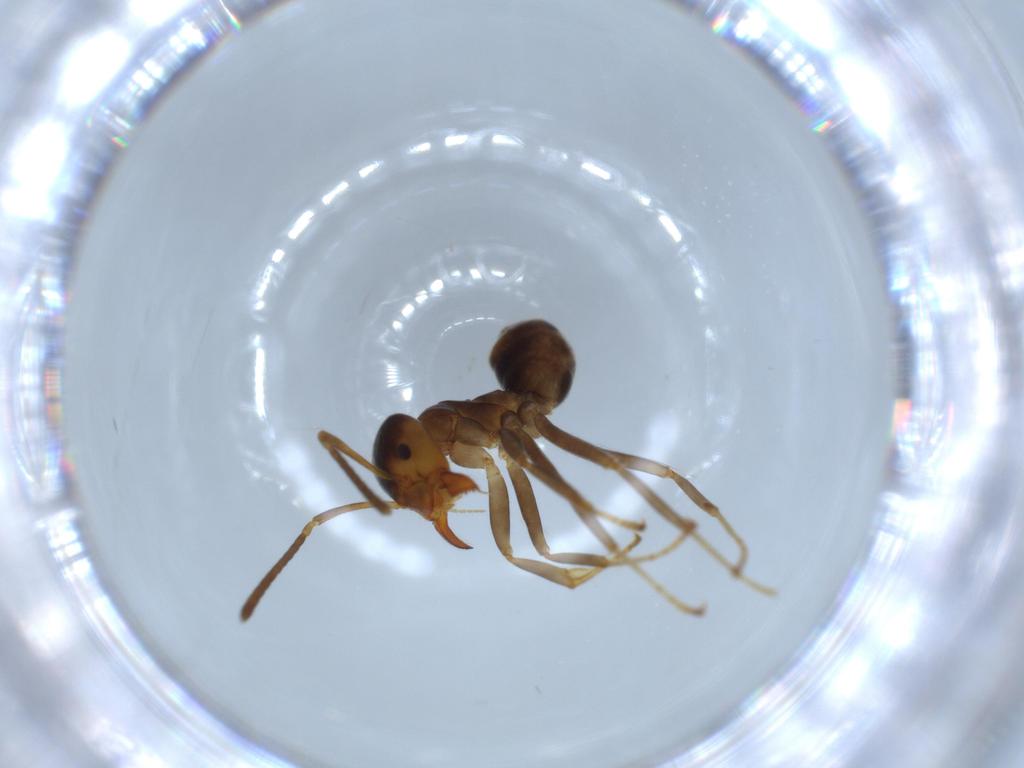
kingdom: Animalia
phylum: Arthropoda
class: Insecta
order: Hymenoptera
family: Formicidae
